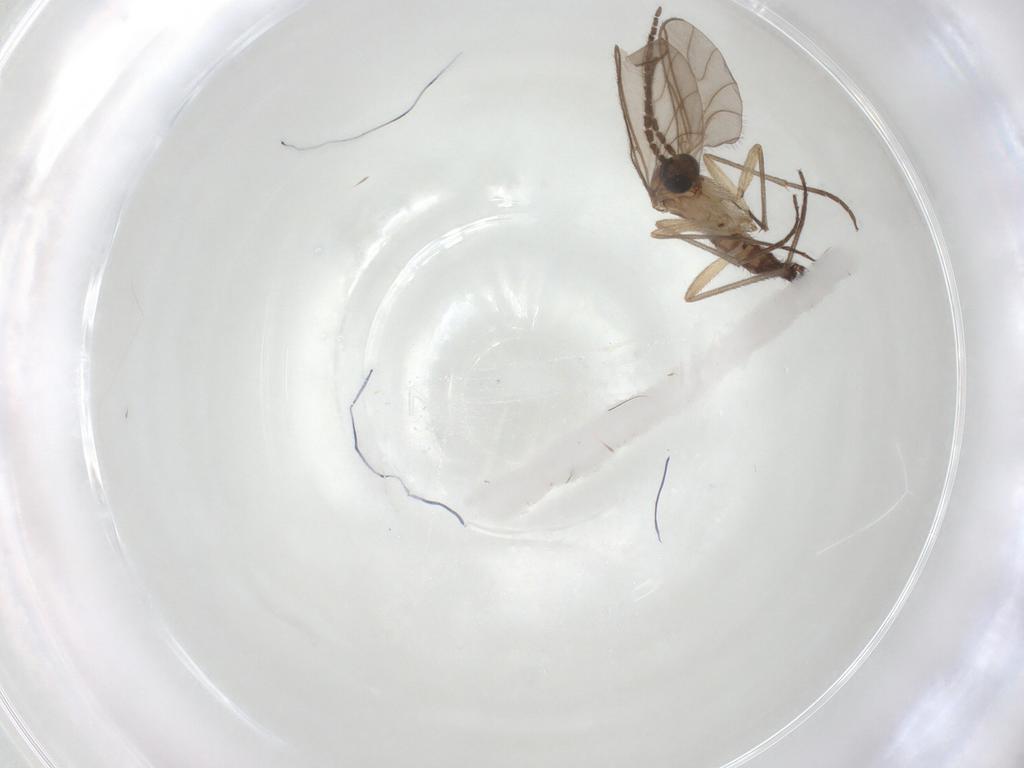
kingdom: Animalia
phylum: Arthropoda
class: Insecta
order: Diptera
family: Sciaridae
